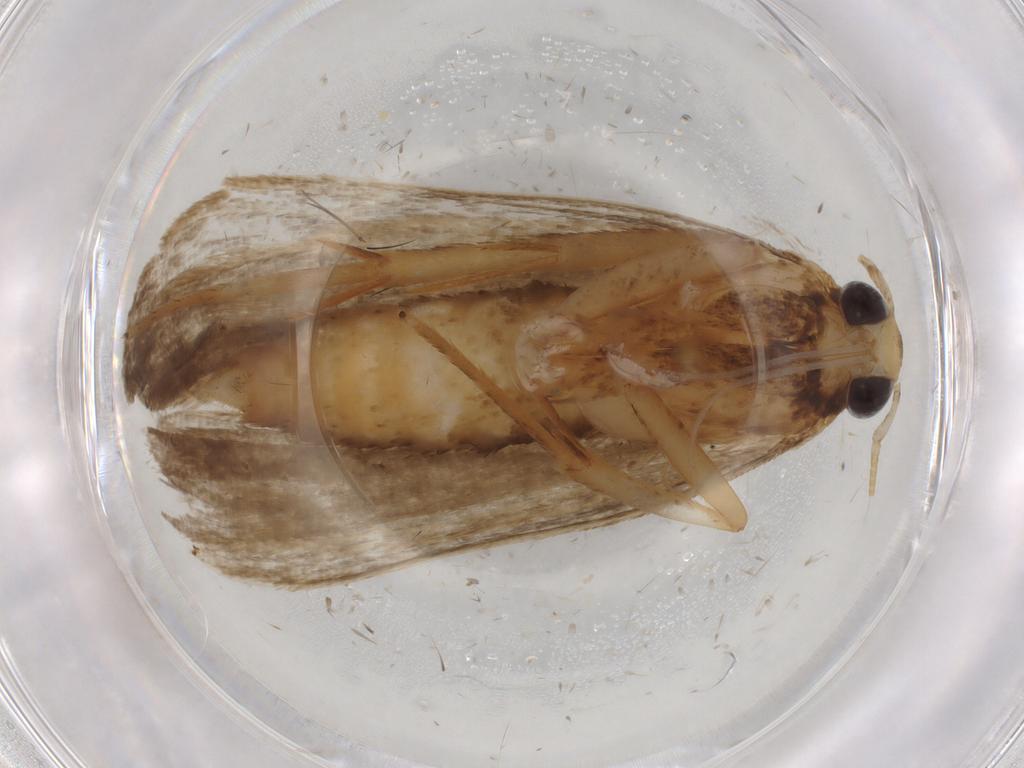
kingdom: Animalia
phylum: Arthropoda
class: Insecta
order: Lepidoptera
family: Autostichidae
